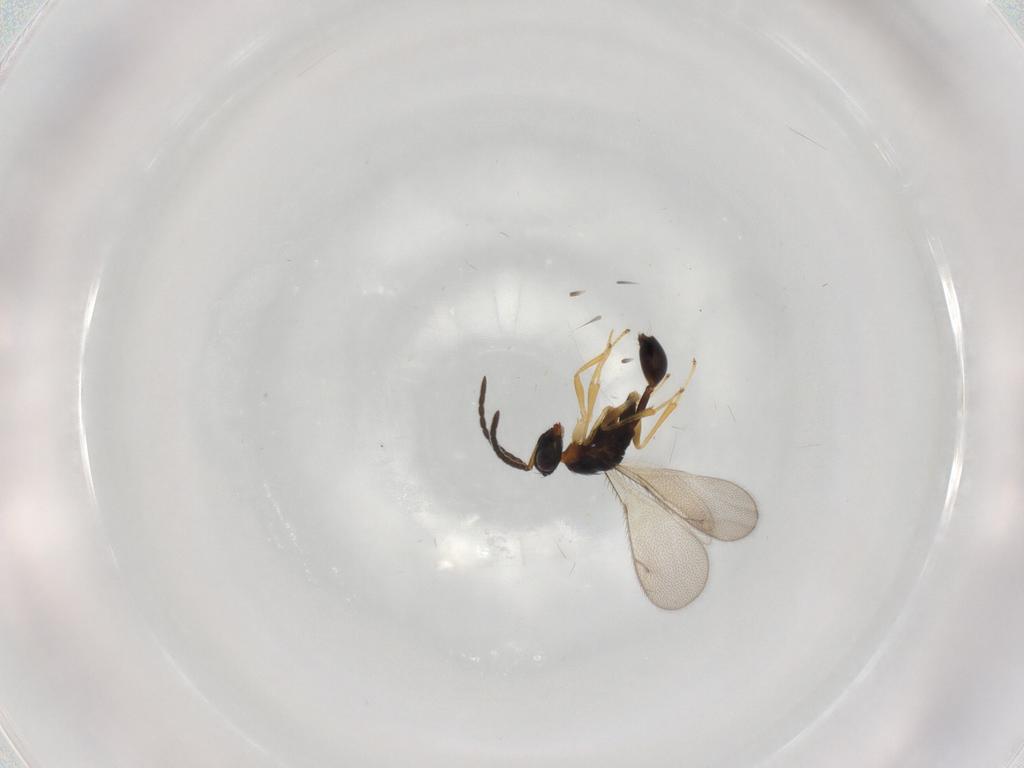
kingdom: Animalia
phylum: Arthropoda
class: Insecta
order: Hymenoptera
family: Diparidae
